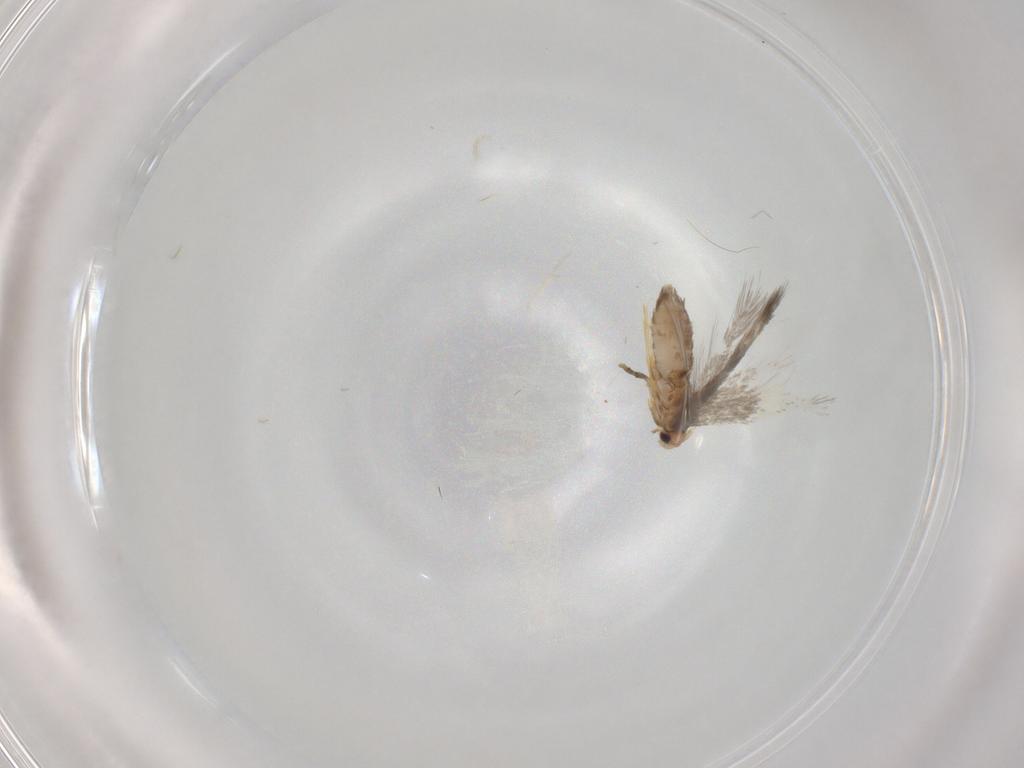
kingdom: Animalia
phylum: Arthropoda
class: Insecta
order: Lepidoptera
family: Nepticulidae
